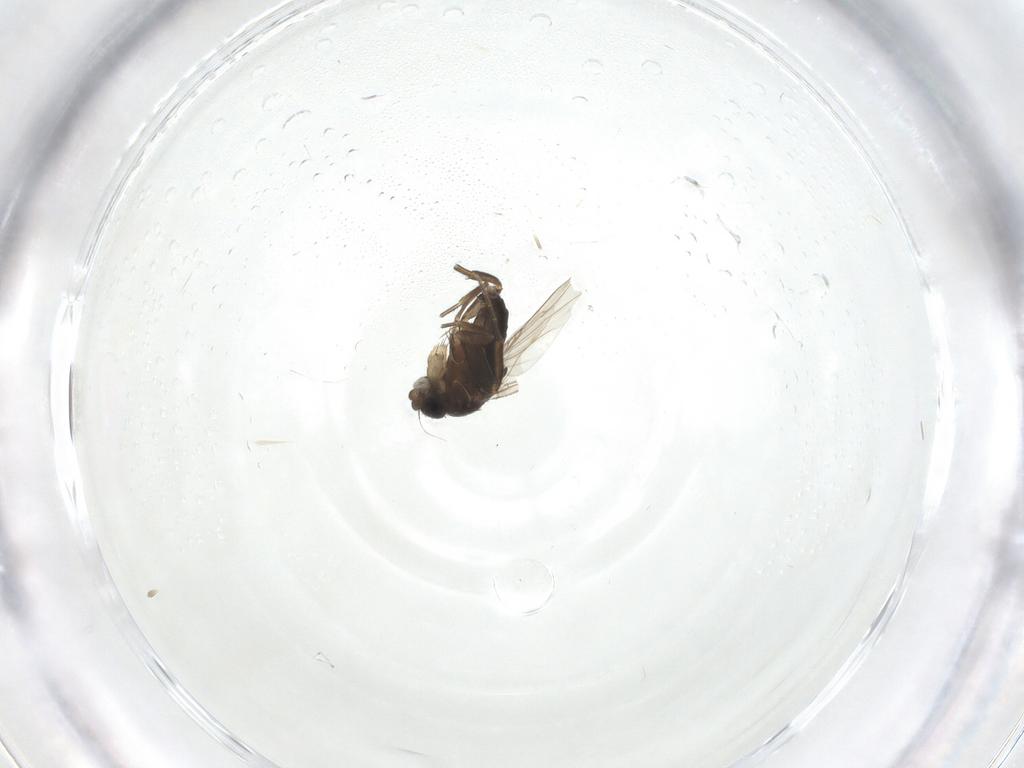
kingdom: Animalia
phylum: Arthropoda
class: Insecta
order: Diptera
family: Phoridae
